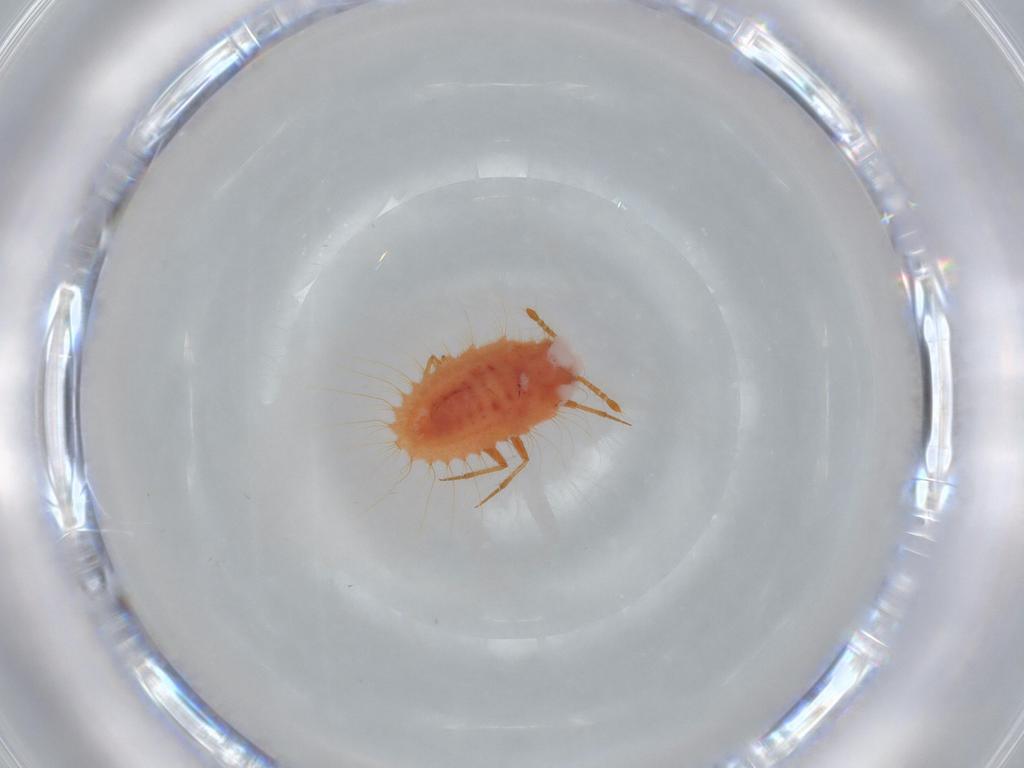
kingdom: Animalia
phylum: Arthropoda
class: Insecta
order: Hemiptera
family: Coccoidea_incertae_sedis
